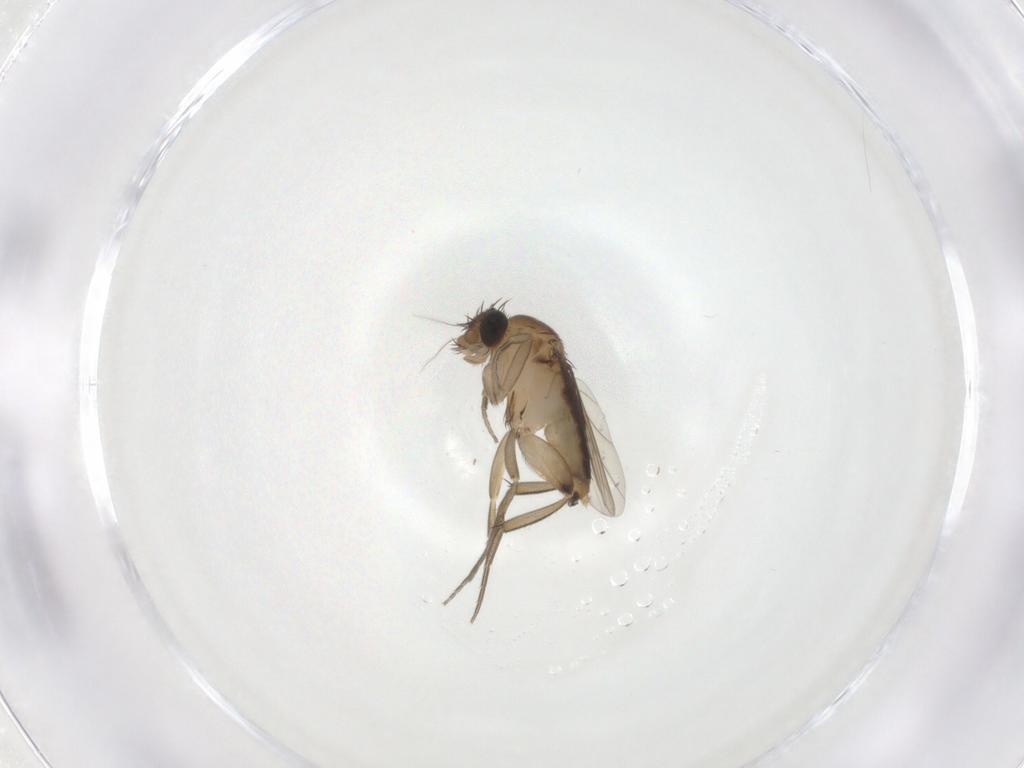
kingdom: Animalia
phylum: Arthropoda
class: Insecta
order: Diptera
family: Phoridae
